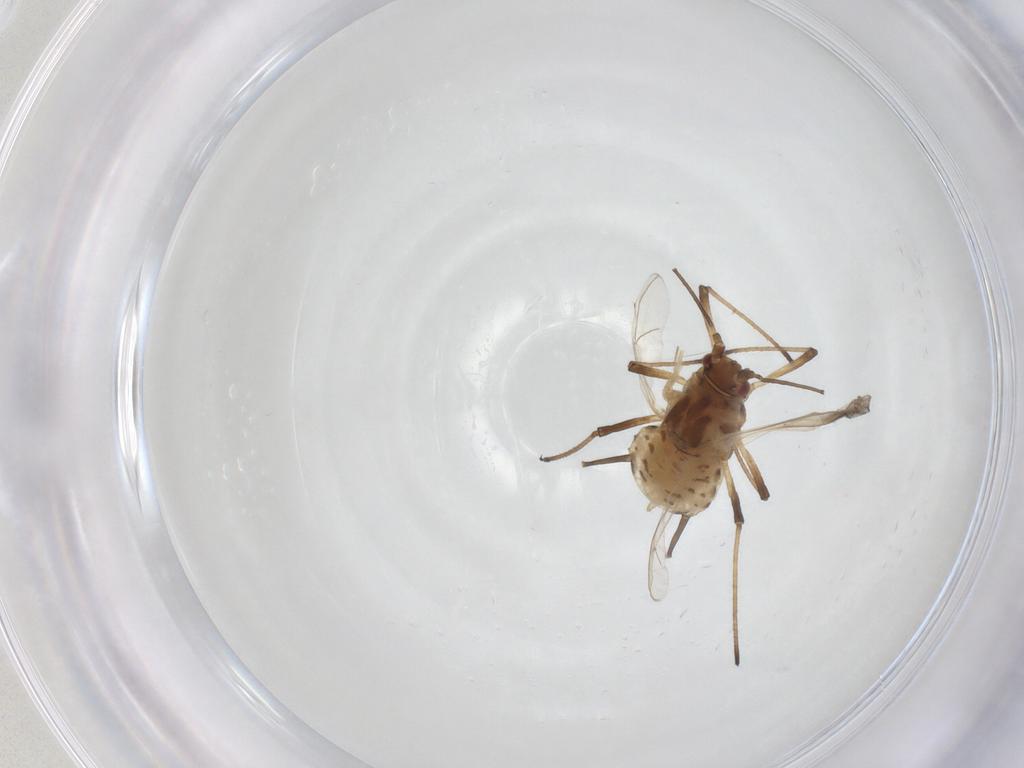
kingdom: Animalia
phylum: Arthropoda
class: Insecta
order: Hemiptera
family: Aphididae
